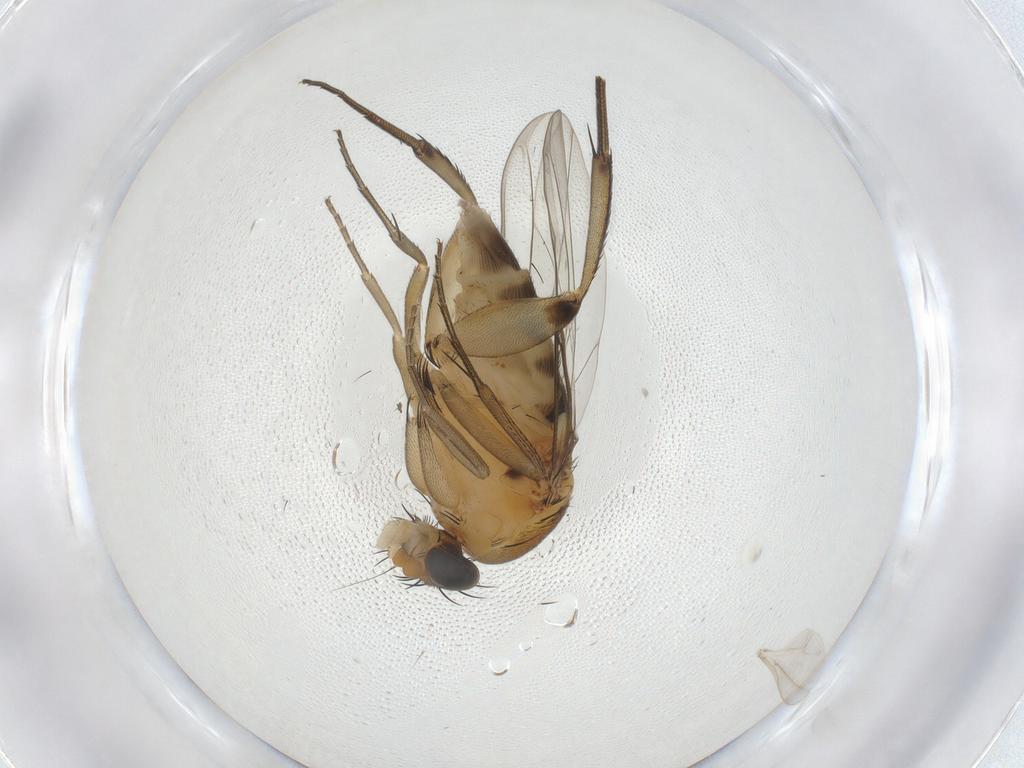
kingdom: Animalia
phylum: Arthropoda
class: Insecta
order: Diptera
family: Phoridae
